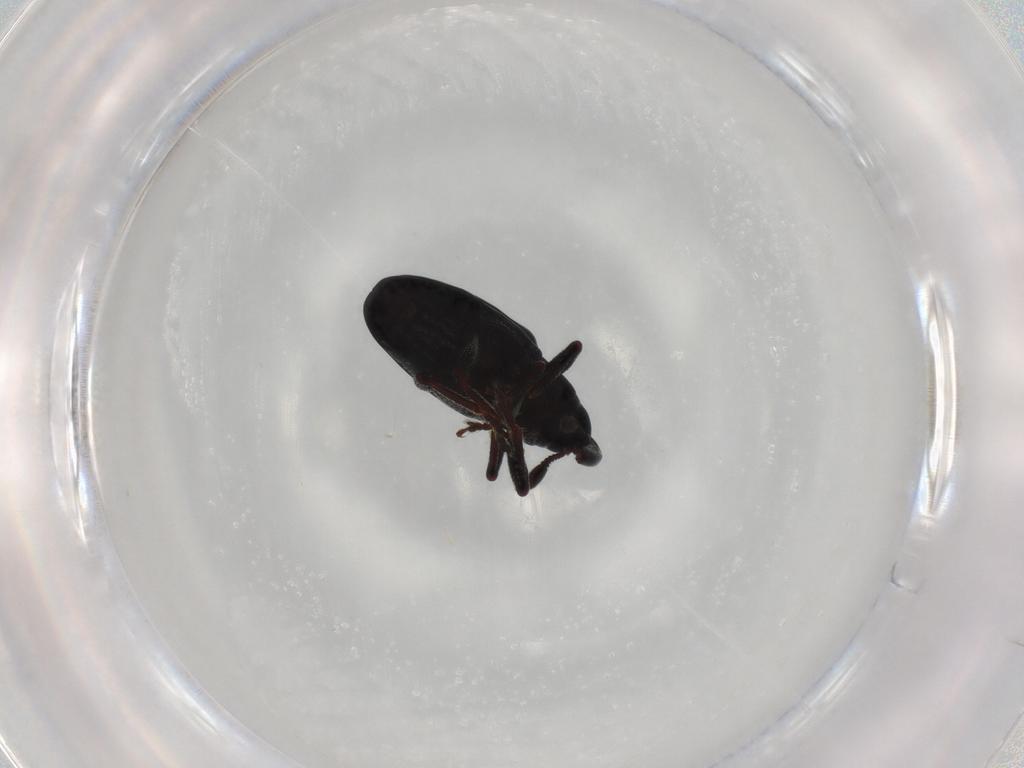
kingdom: Animalia
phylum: Arthropoda
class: Insecta
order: Coleoptera
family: Curculionidae
